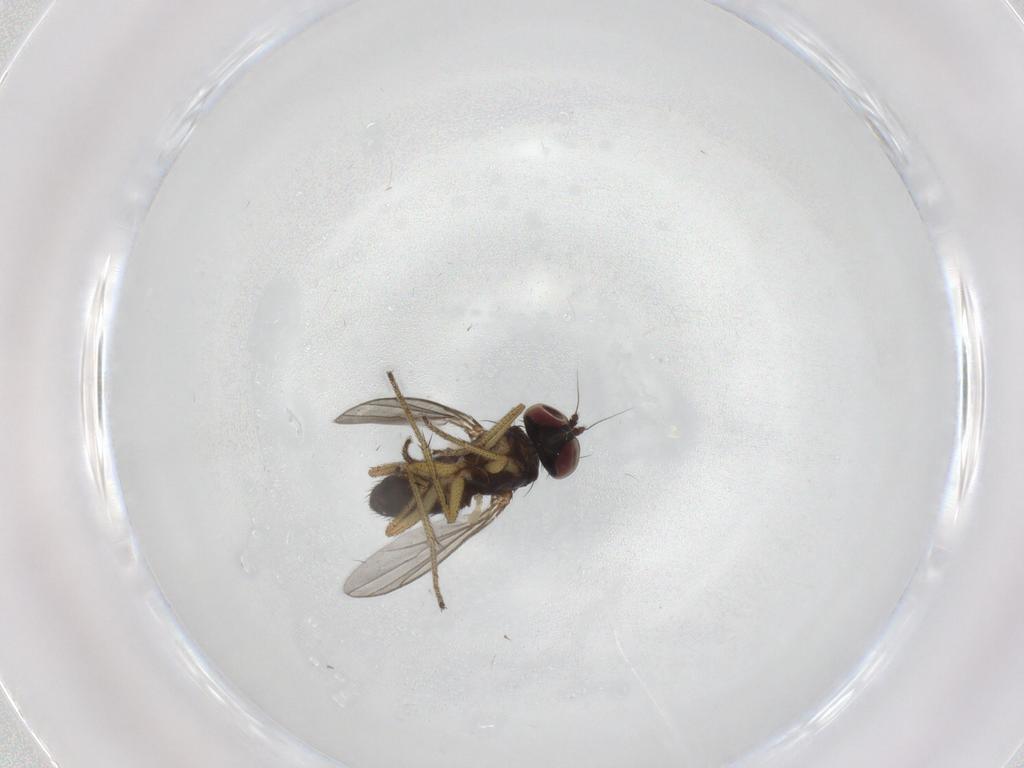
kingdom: Animalia
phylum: Arthropoda
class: Insecta
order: Diptera
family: Dolichopodidae
